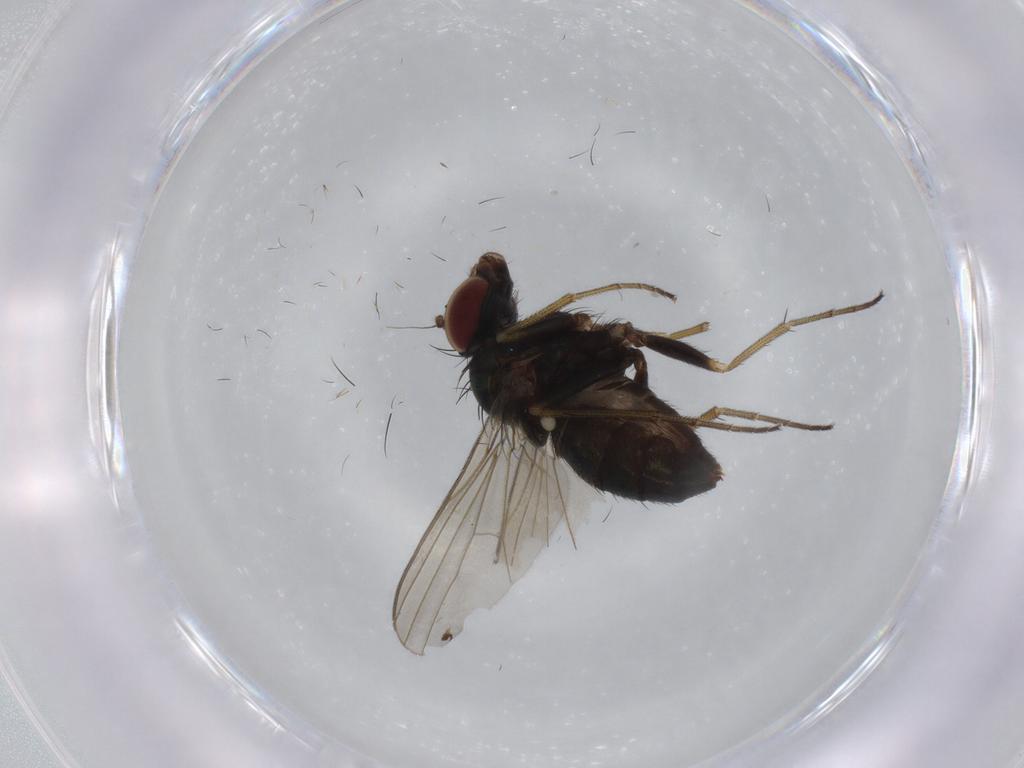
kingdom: Animalia
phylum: Arthropoda
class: Insecta
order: Diptera
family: Dolichopodidae
